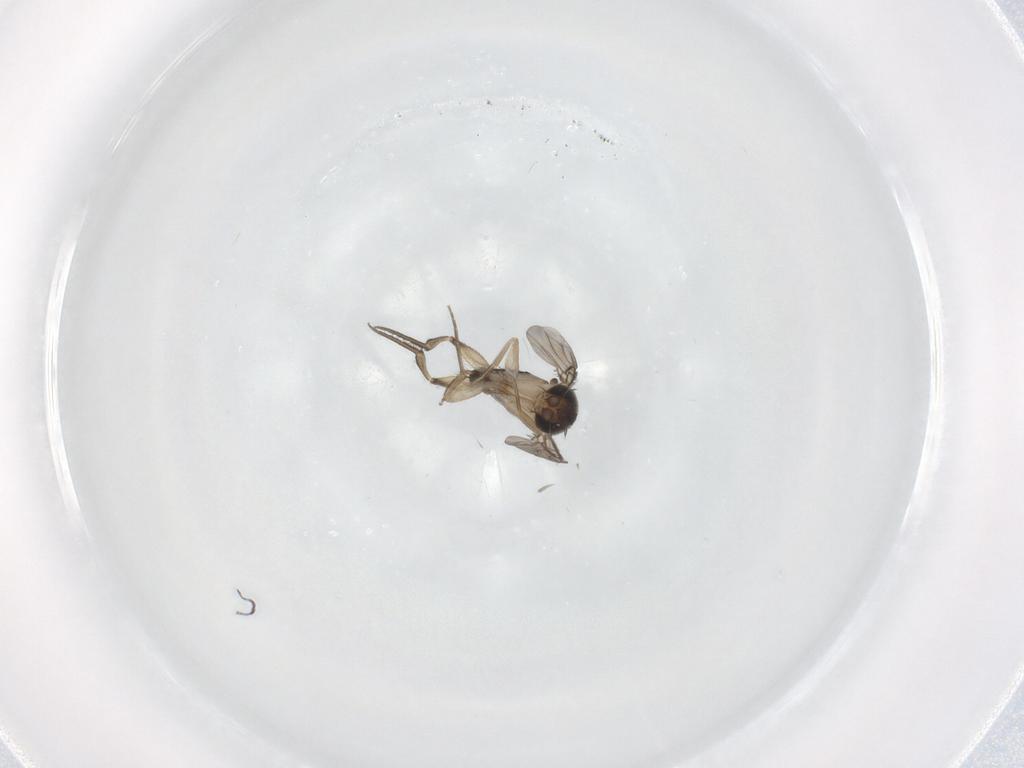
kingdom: Animalia
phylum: Arthropoda
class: Insecta
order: Diptera
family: Phoridae
